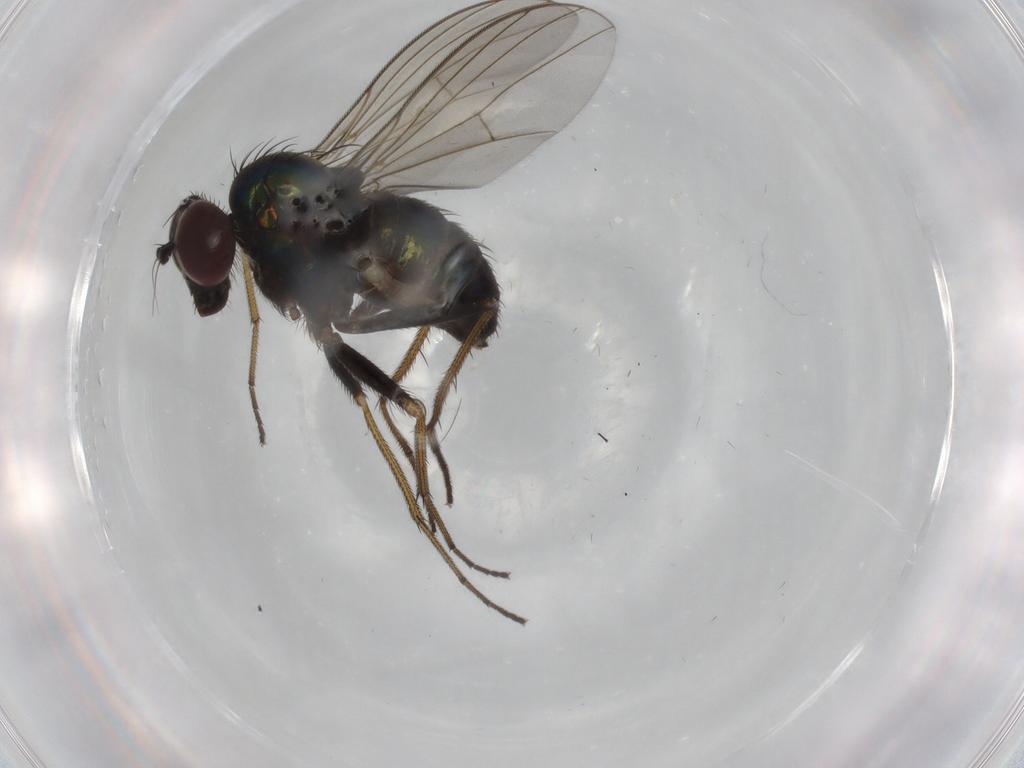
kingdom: Animalia
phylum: Arthropoda
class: Insecta
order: Diptera
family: Dolichopodidae
